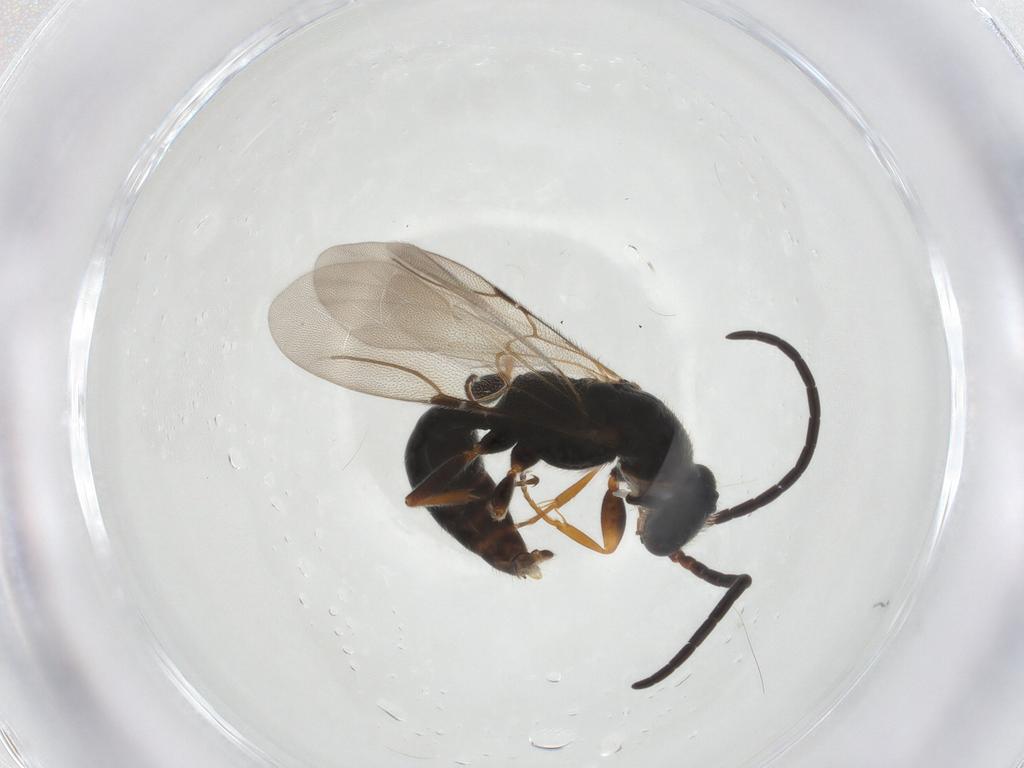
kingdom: Animalia
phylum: Arthropoda
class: Insecta
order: Hymenoptera
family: Bethylidae
